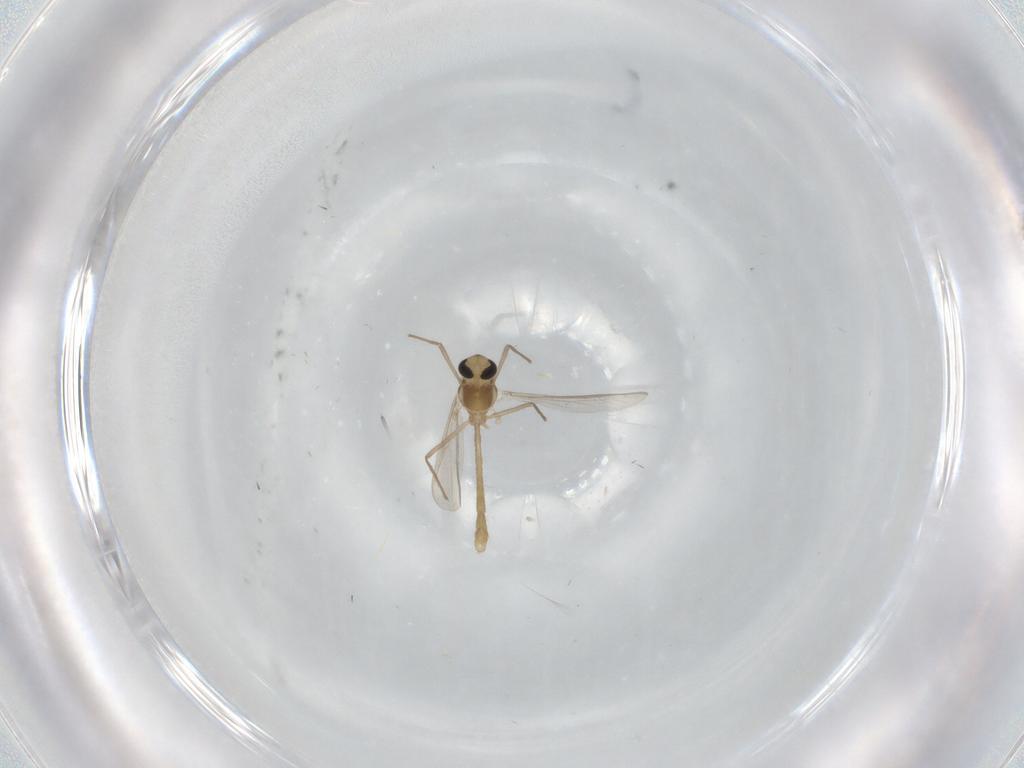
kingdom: Animalia
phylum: Arthropoda
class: Insecta
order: Diptera
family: Chironomidae
